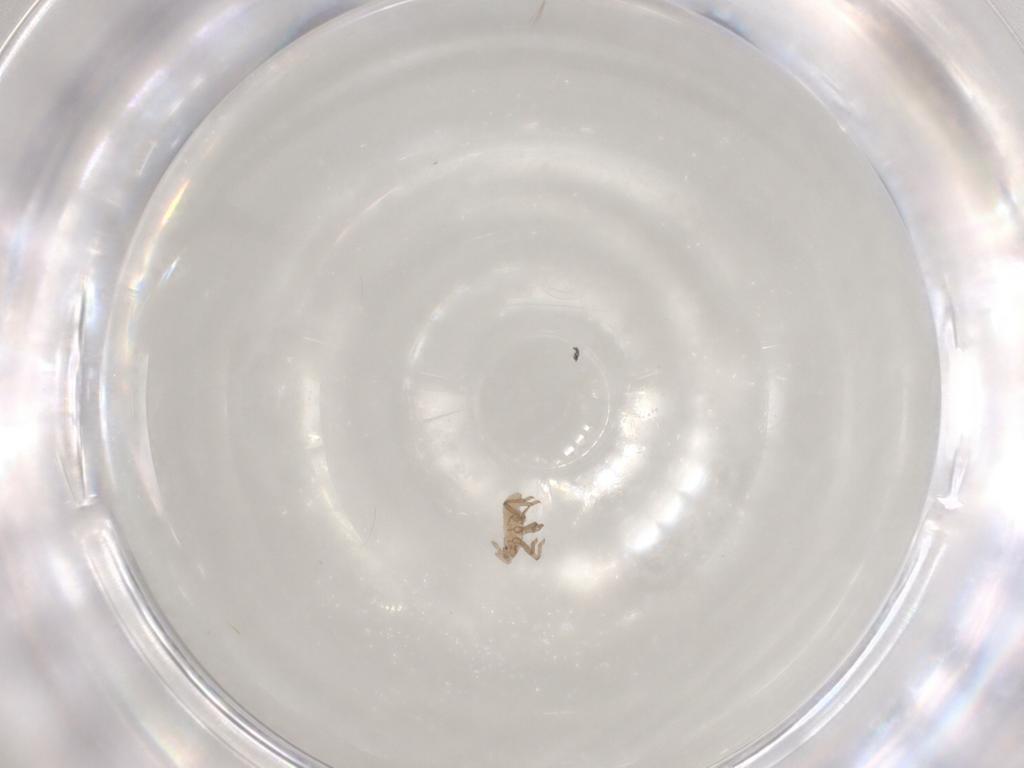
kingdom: Animalia
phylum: Arthropoda
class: Insecta
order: Hemiptera
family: Aphididae
